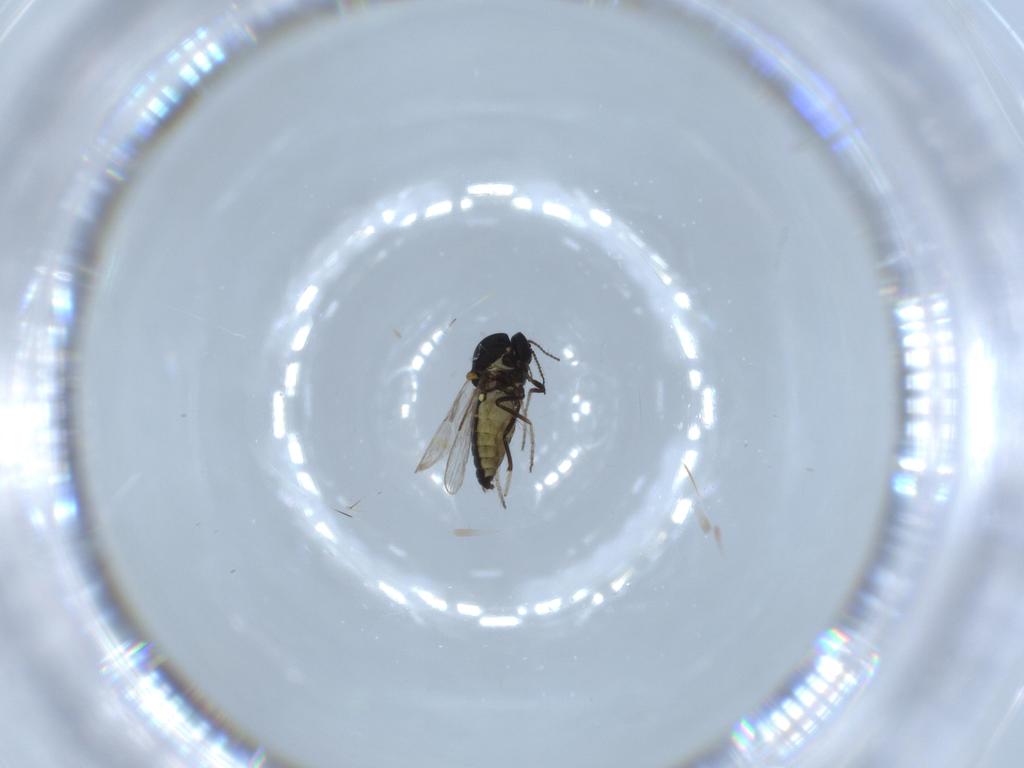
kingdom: Animalia
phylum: Arthropoda
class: Insecta
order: Diptera
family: Ceratopogonidae
